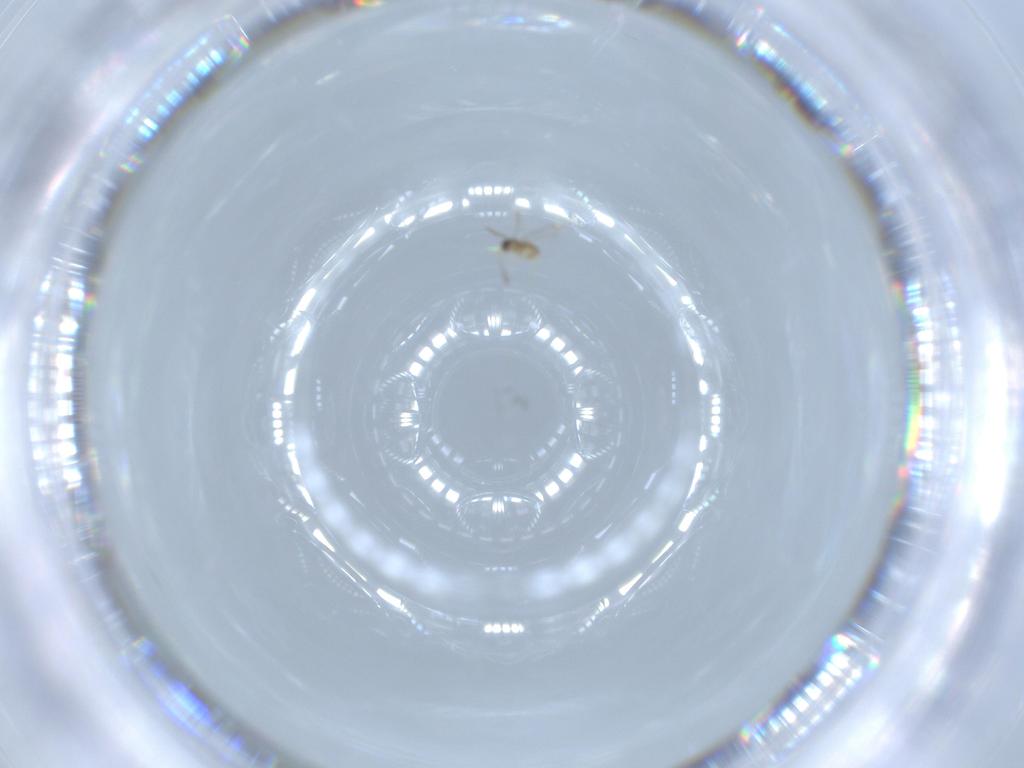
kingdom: Animalia
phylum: Arthropoda
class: Insecta
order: Hymenoptera
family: Mymaridae
